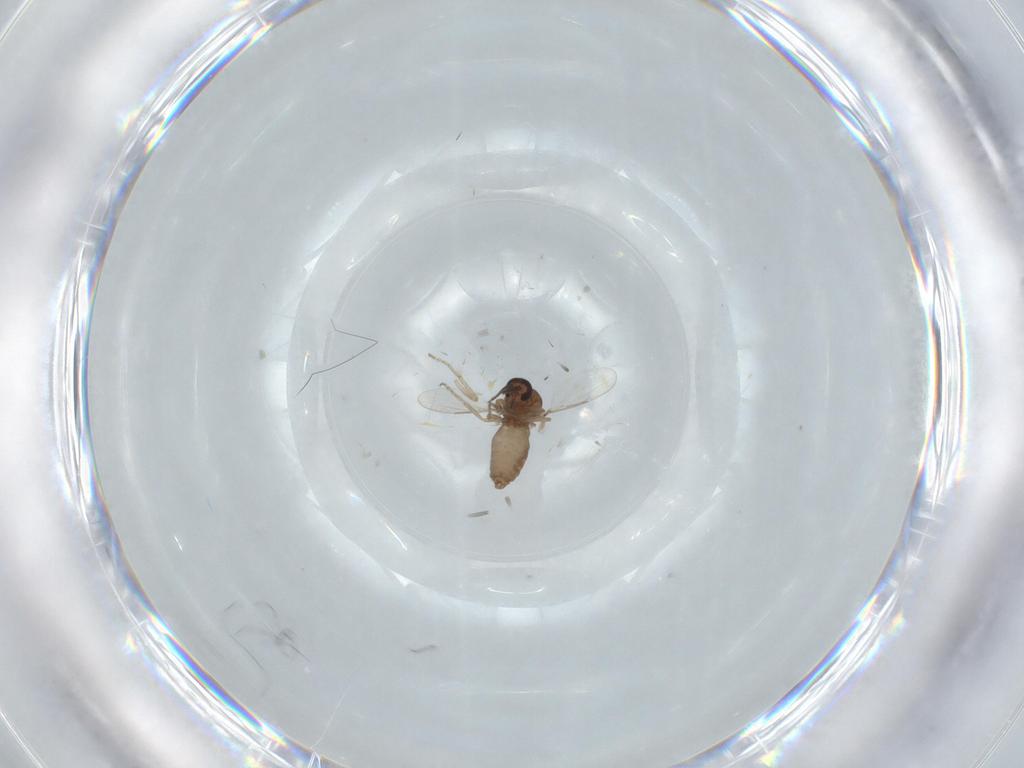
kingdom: Animalia
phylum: Arthropoda
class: Insecta
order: Diptera
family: Ceratopogonidae
